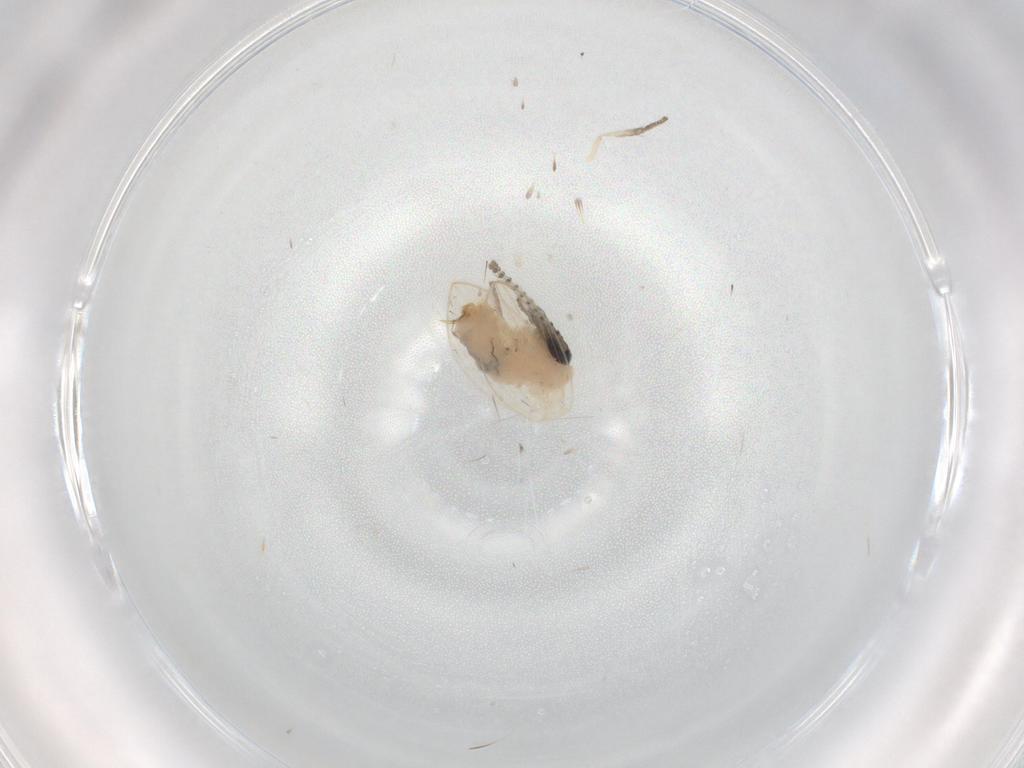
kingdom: Animalia
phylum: Arthropoda
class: Insecta
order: Diptera
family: Psychodidae
